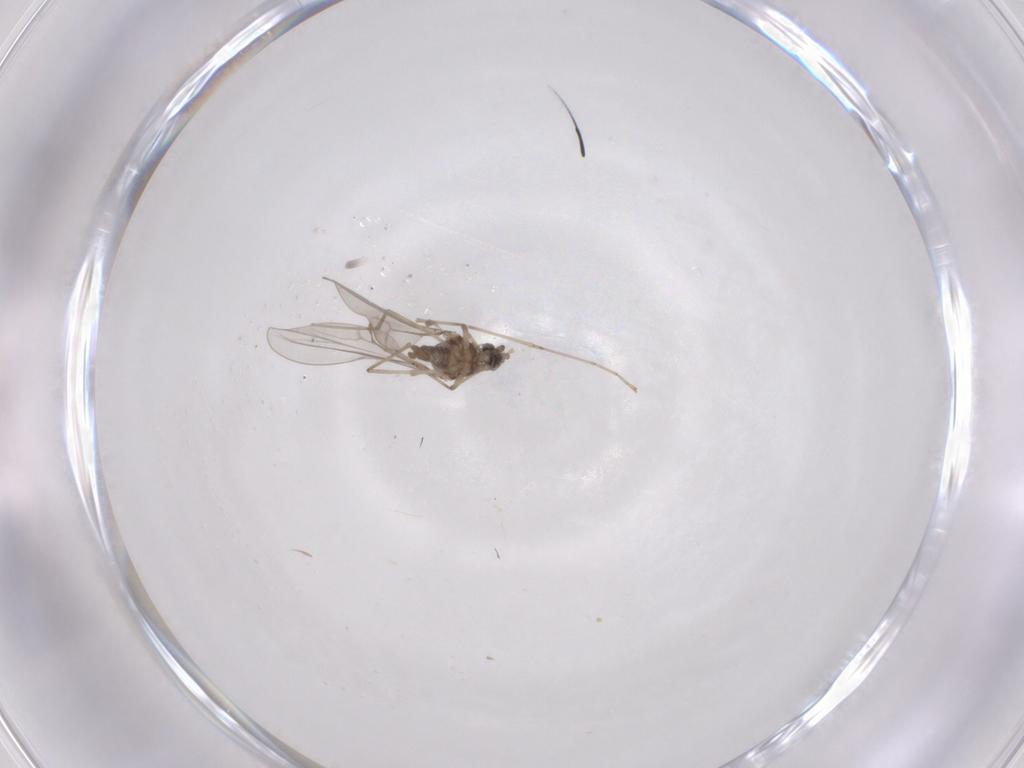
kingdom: Animalia
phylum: Arthropoda
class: Insecta
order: Diptera
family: Cecidomyiidae
